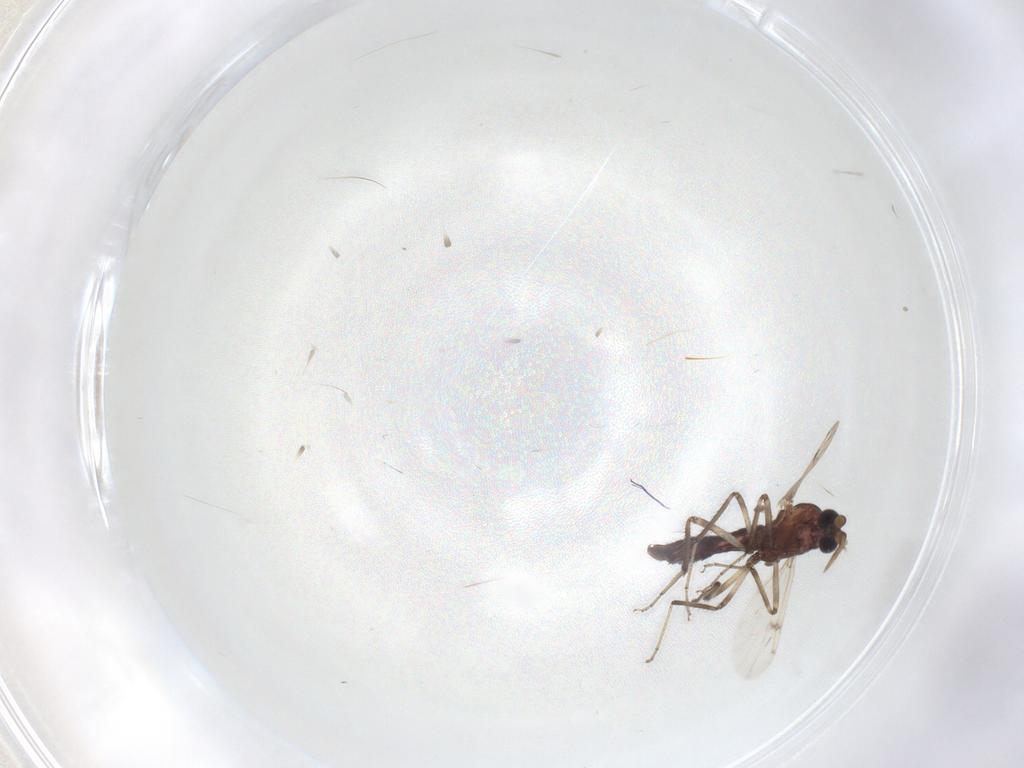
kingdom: Animalia
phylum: Arthropoda
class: Insecta
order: Diptera
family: Ceratopogonidae
